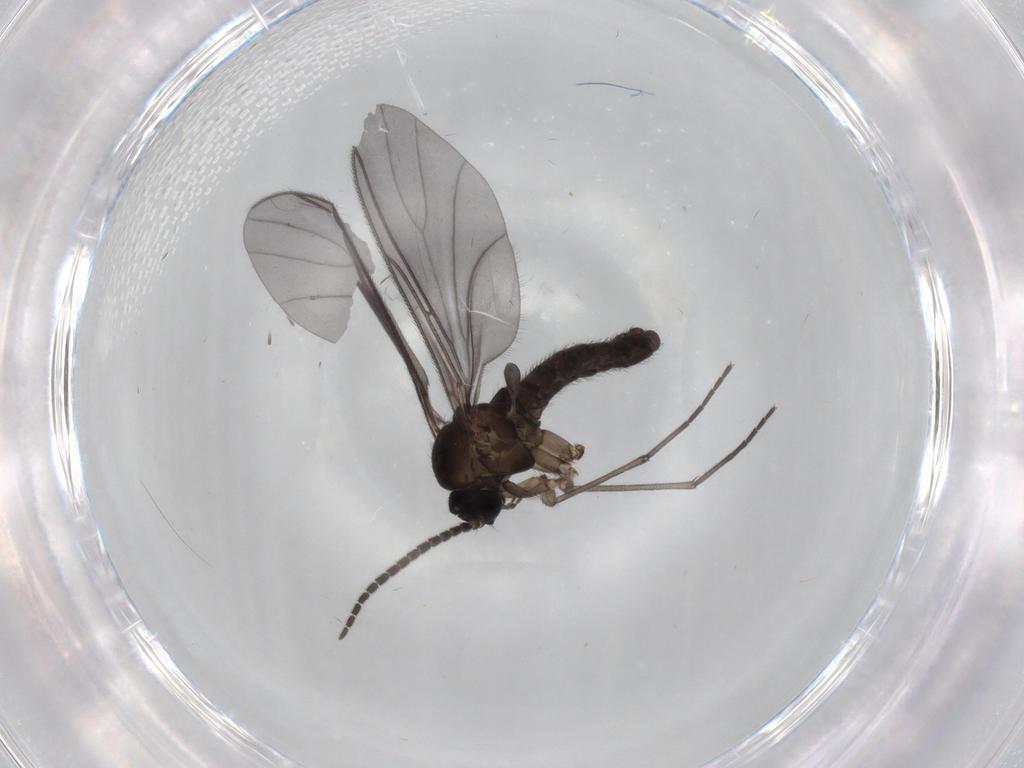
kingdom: Animalia
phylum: Arthropoda
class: Insecta
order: Diptera
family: Sciaridae
